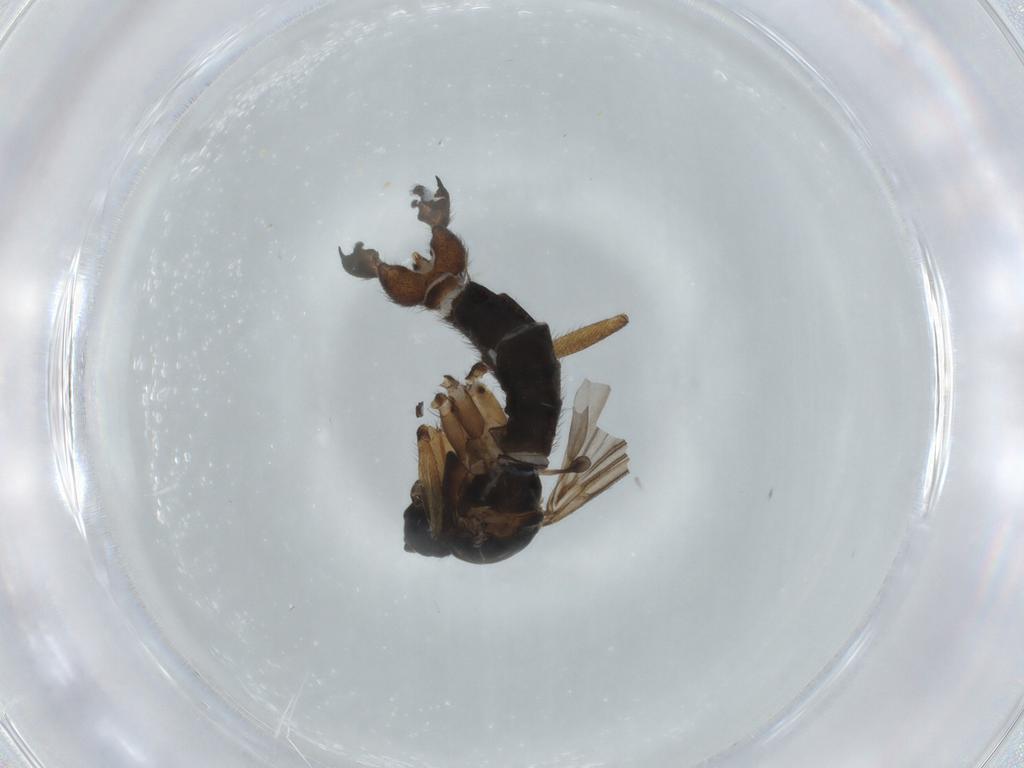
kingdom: Animalia
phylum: Arthropoda
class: Insecta
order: Diptera
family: Sciaridae
